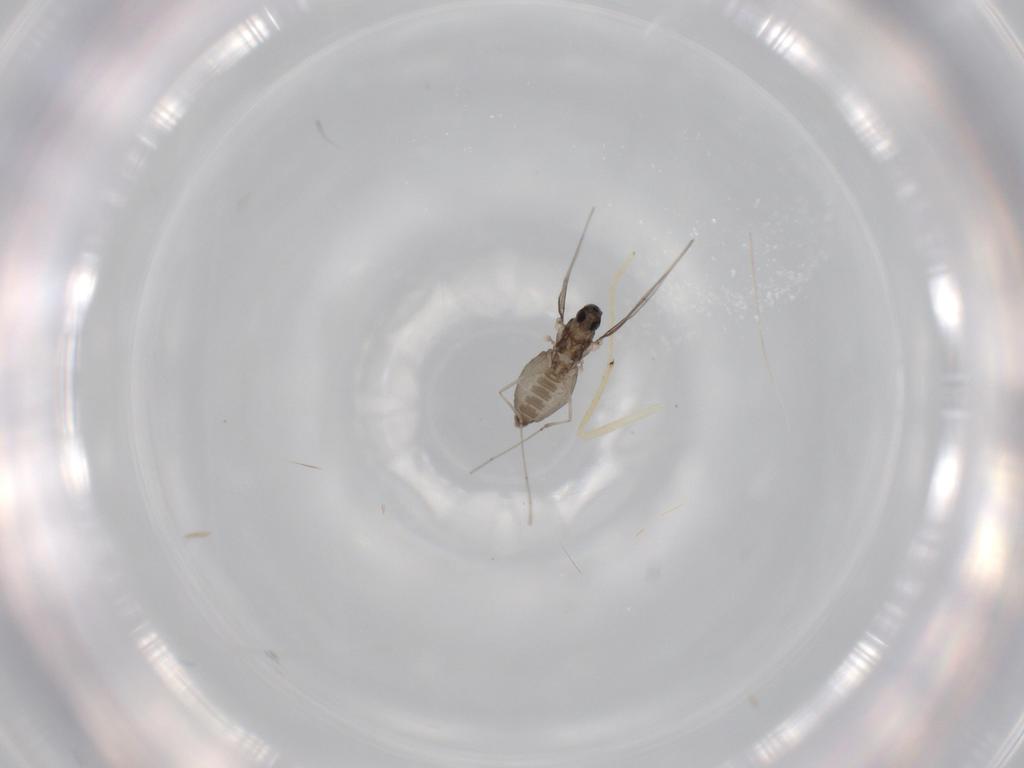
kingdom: Animalia
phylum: Arthropoda
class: Insecta
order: Diptera
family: Cecidomyiidae
